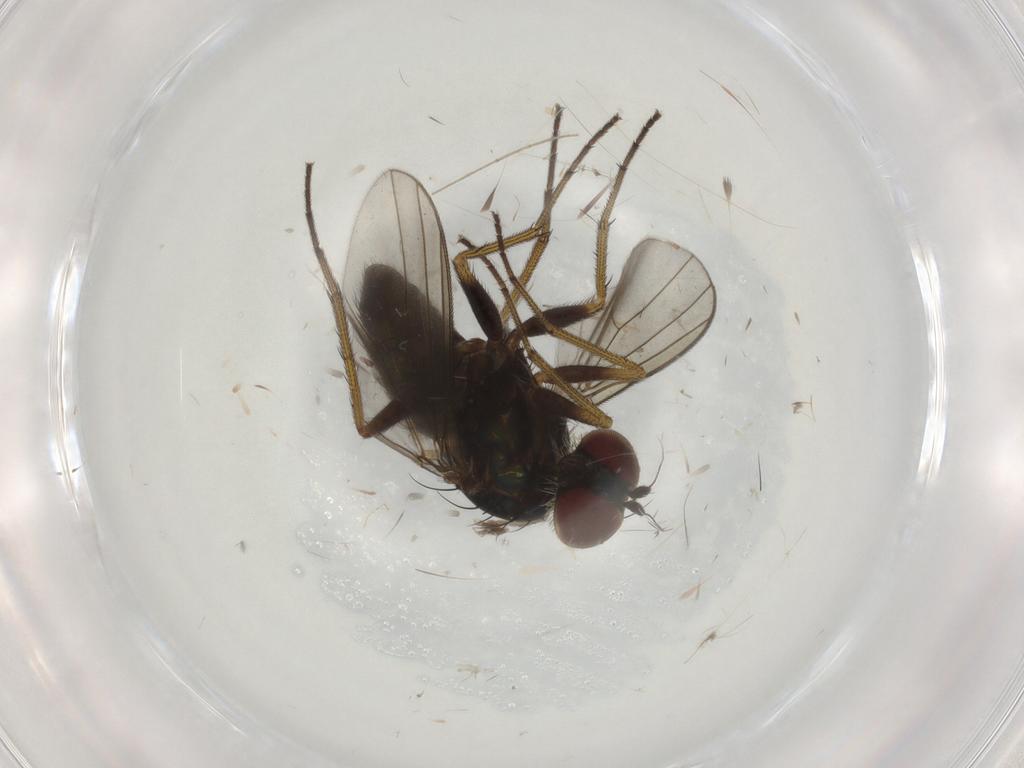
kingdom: Animalia
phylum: Arthropoda
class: Insecta
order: Diptera
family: Dolichopodidae
